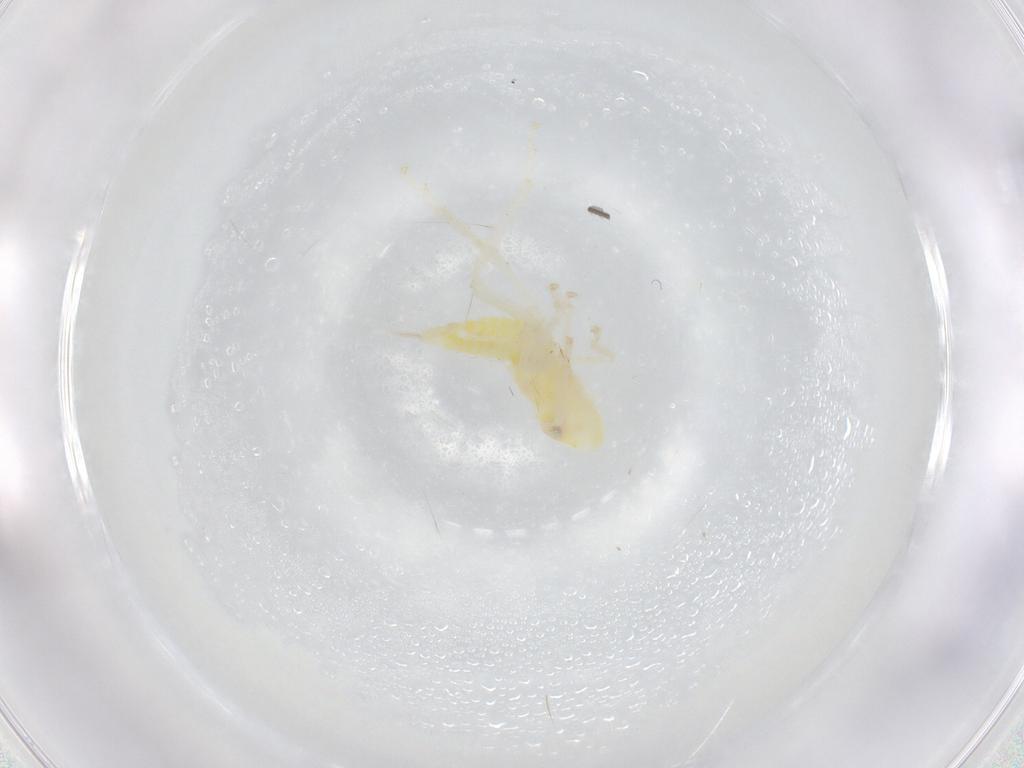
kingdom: Animalia
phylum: Arthropoda
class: Insecta
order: Hemiptera
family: Cicadellidae
